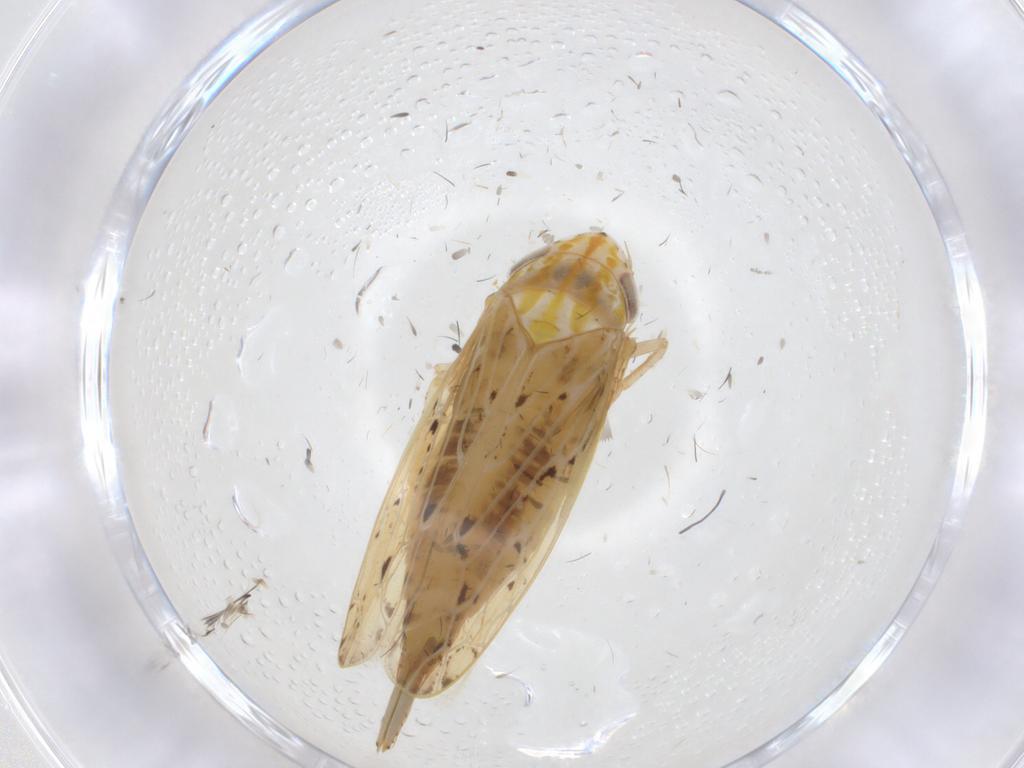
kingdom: Animalia
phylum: Arthropoda
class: Insecta
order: Hemiptera
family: Cicadellidae
